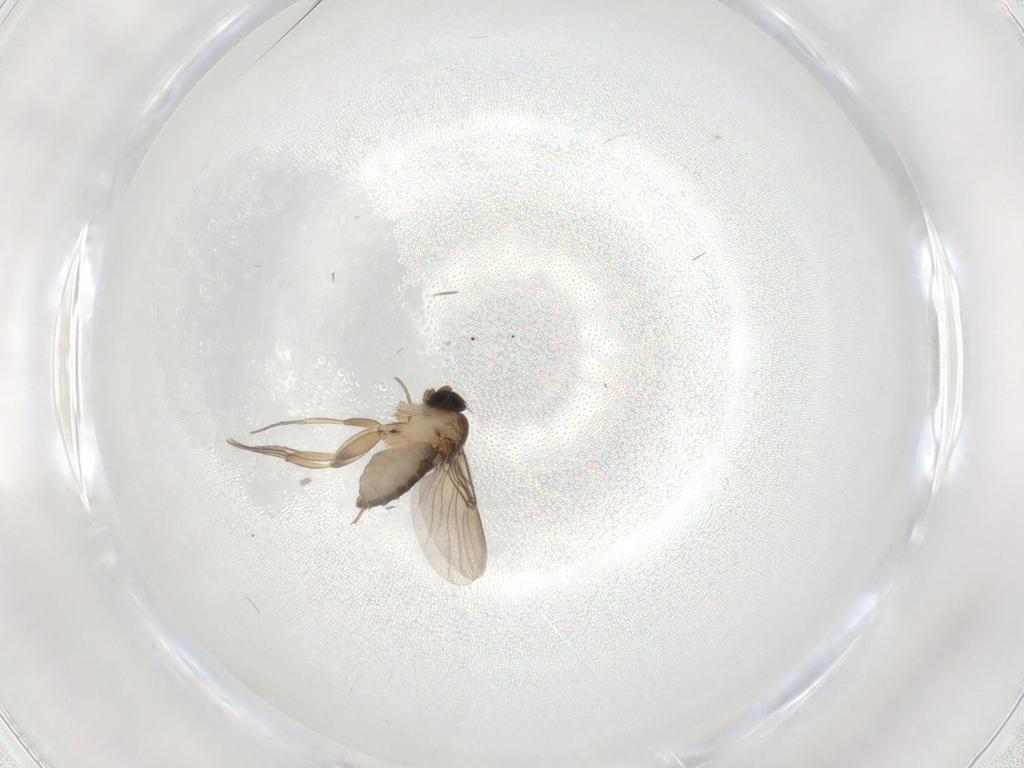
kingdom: Animalia
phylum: Arthropoda
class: Insecta
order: Diptera
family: Phoridae
